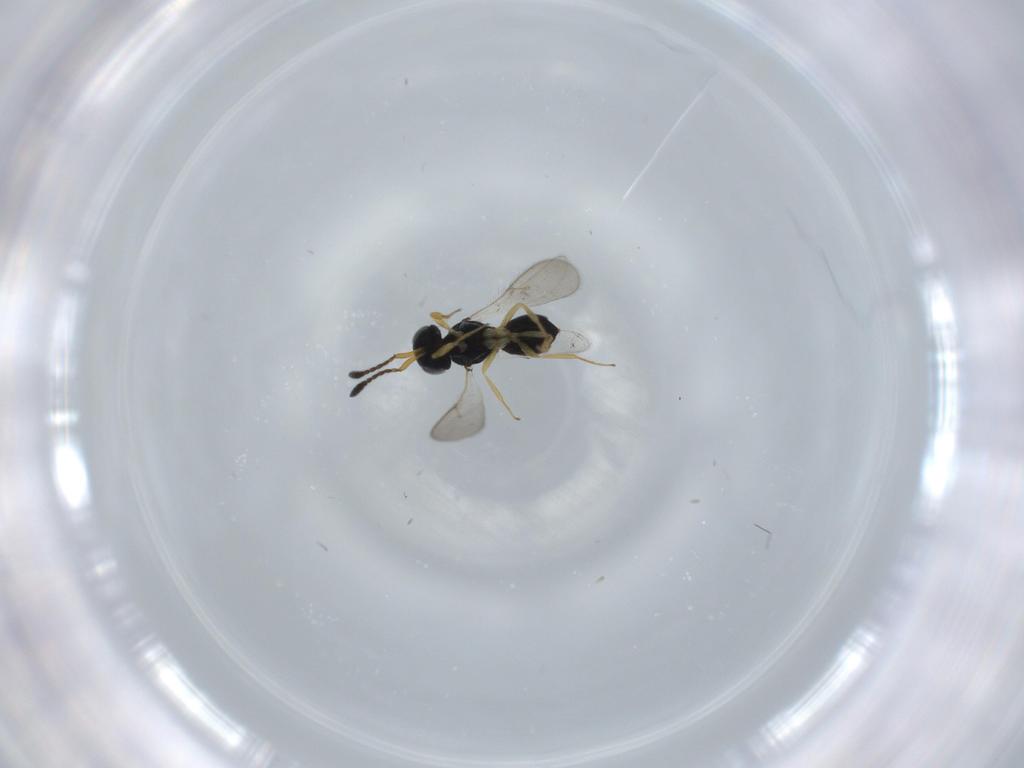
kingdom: Animalia
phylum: Arthropoda
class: Insecta
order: Hymenoptera
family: Scelionidae
